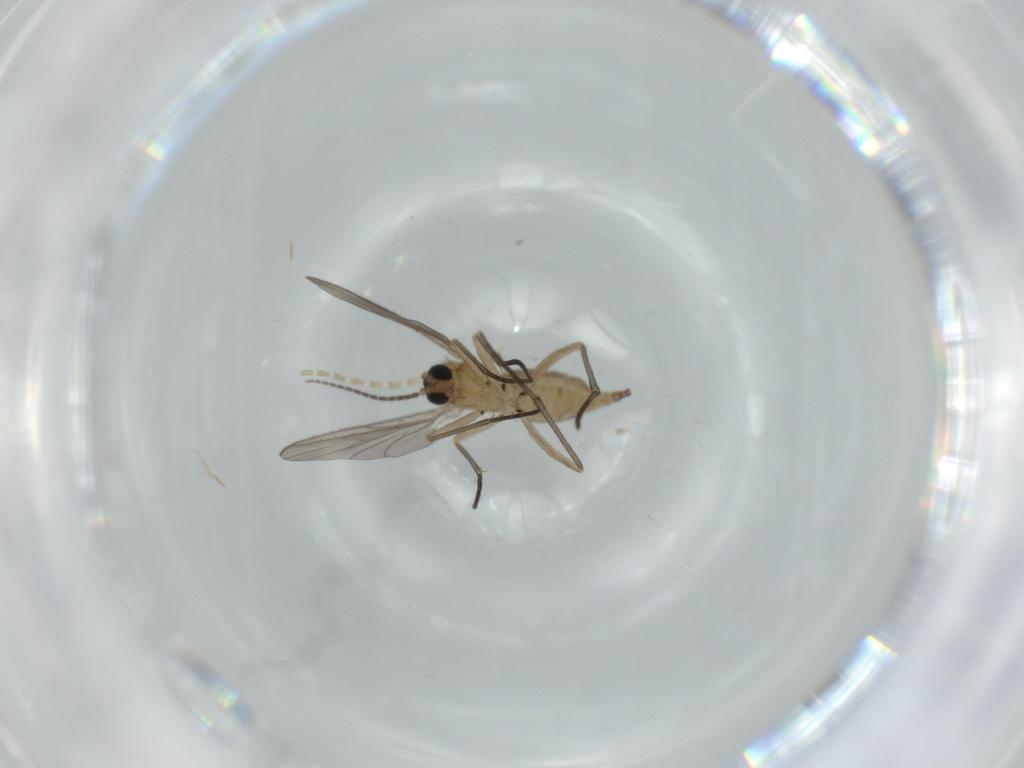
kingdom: Animalia
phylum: Arthropoda
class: Insecta
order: Diptera
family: Sciaridae
